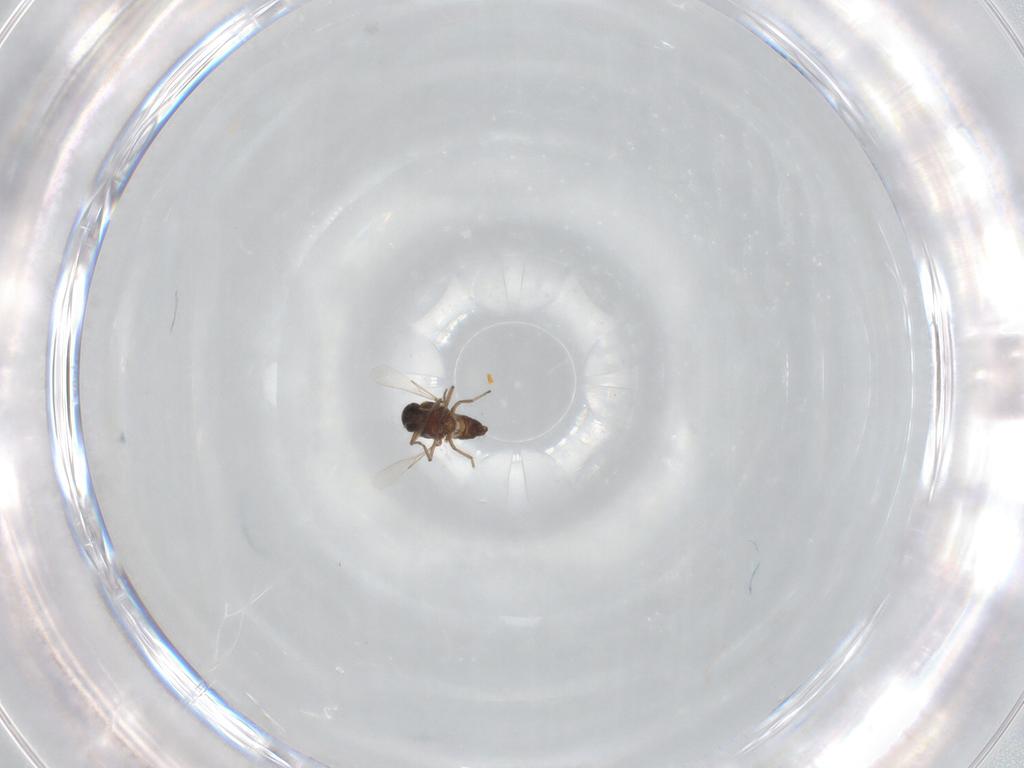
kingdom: Animalia
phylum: Arthropoda
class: Insecta
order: Diptera
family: Ceratopogonidae
